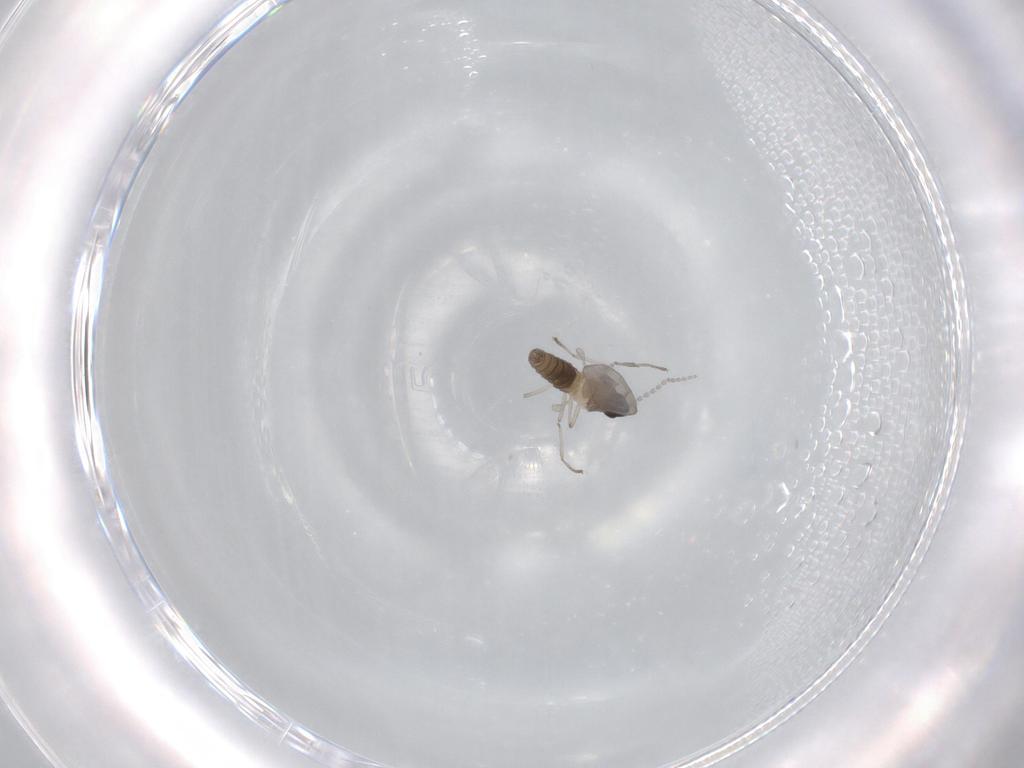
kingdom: Animalia
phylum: Arthropoda
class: Insecta
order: Diptera
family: Cecidomyiidae
